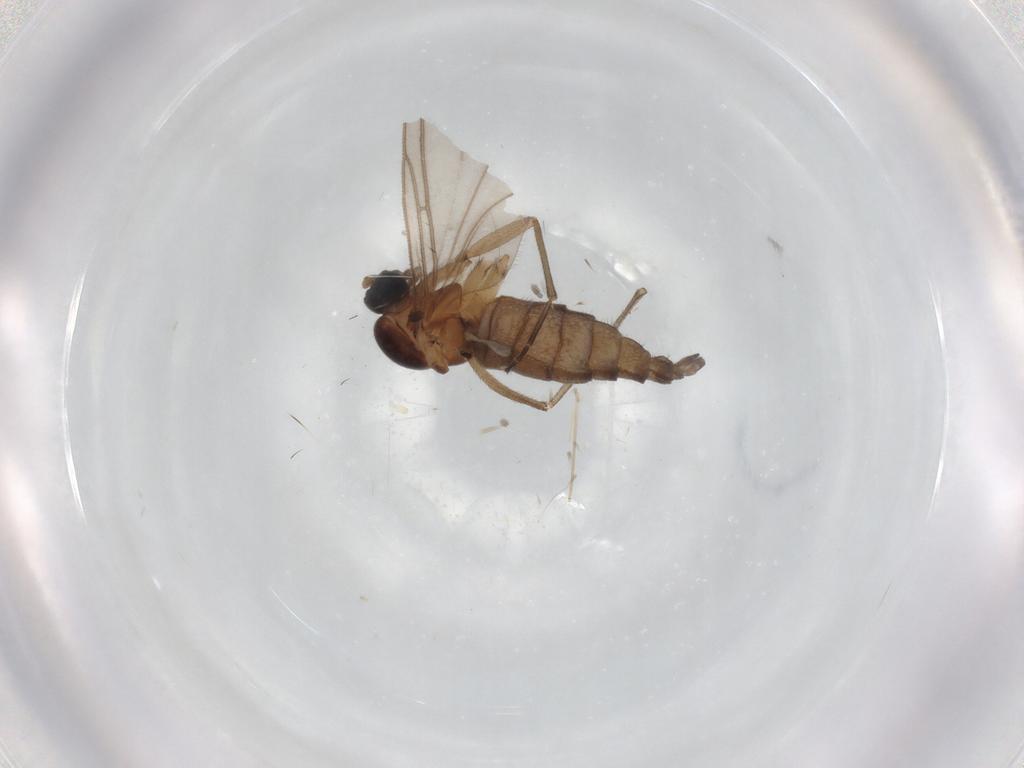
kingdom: Animalia
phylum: Arthropoda
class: Insecta
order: Diptera
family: Sciaridae
